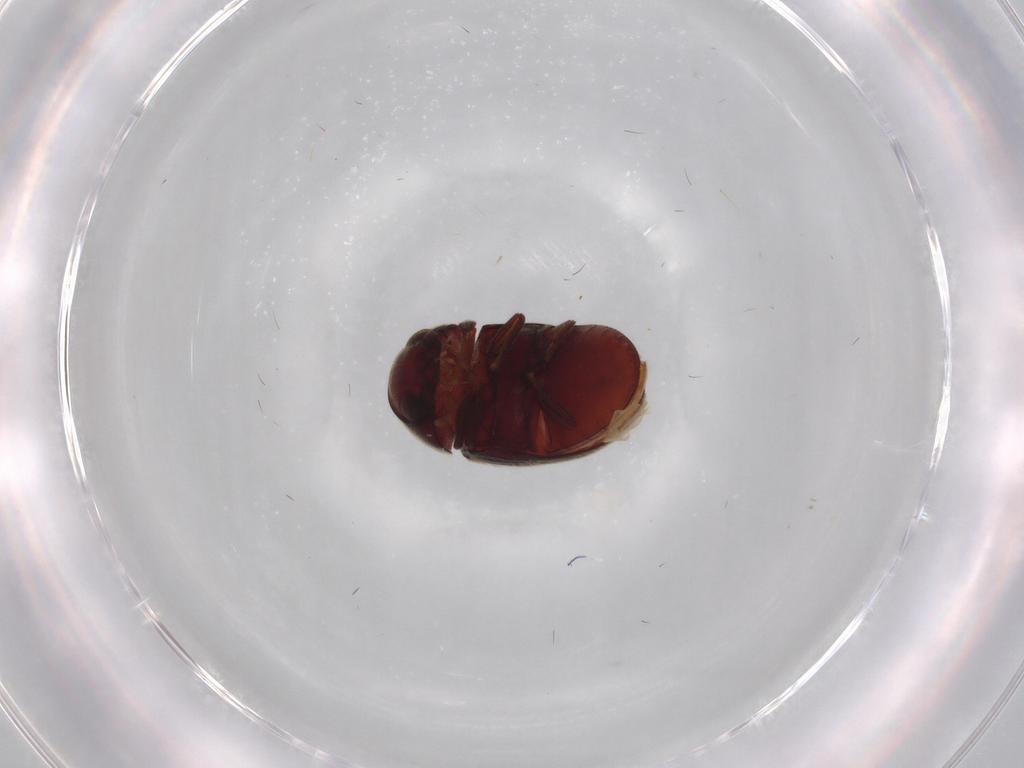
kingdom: Animalia
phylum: Arthropoda
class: Insecta
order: Coleoptera
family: Ptinidae
